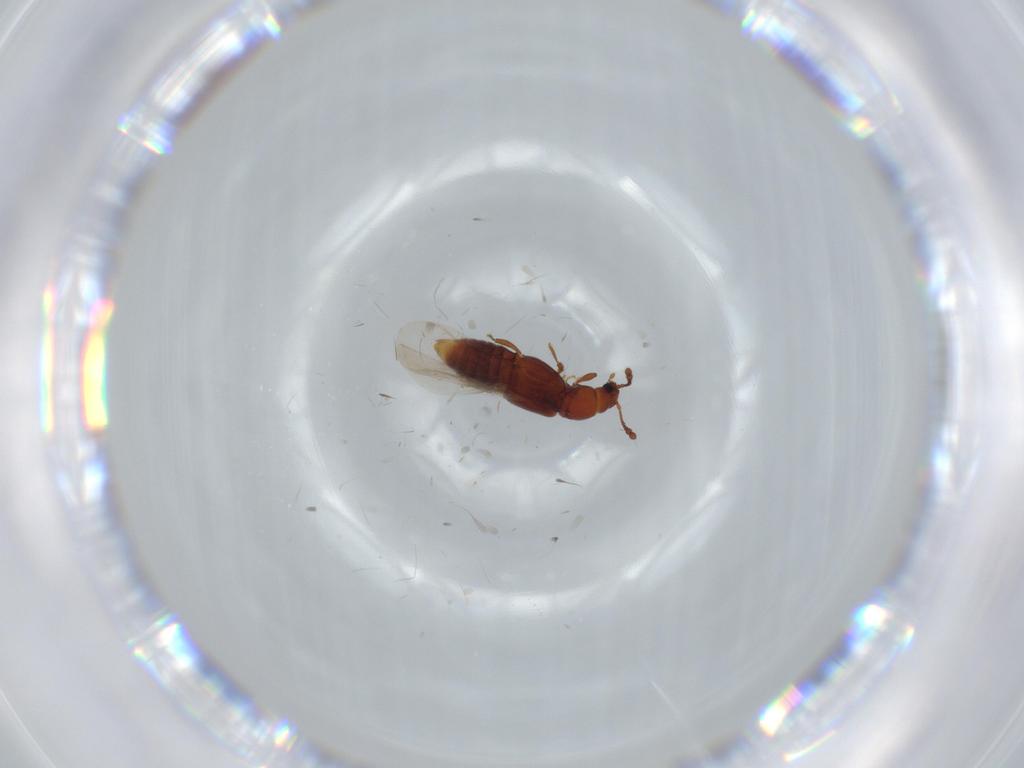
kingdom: Animalia
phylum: Arthropoda
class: Insecta
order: Coleoptera
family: Staphylinidae
